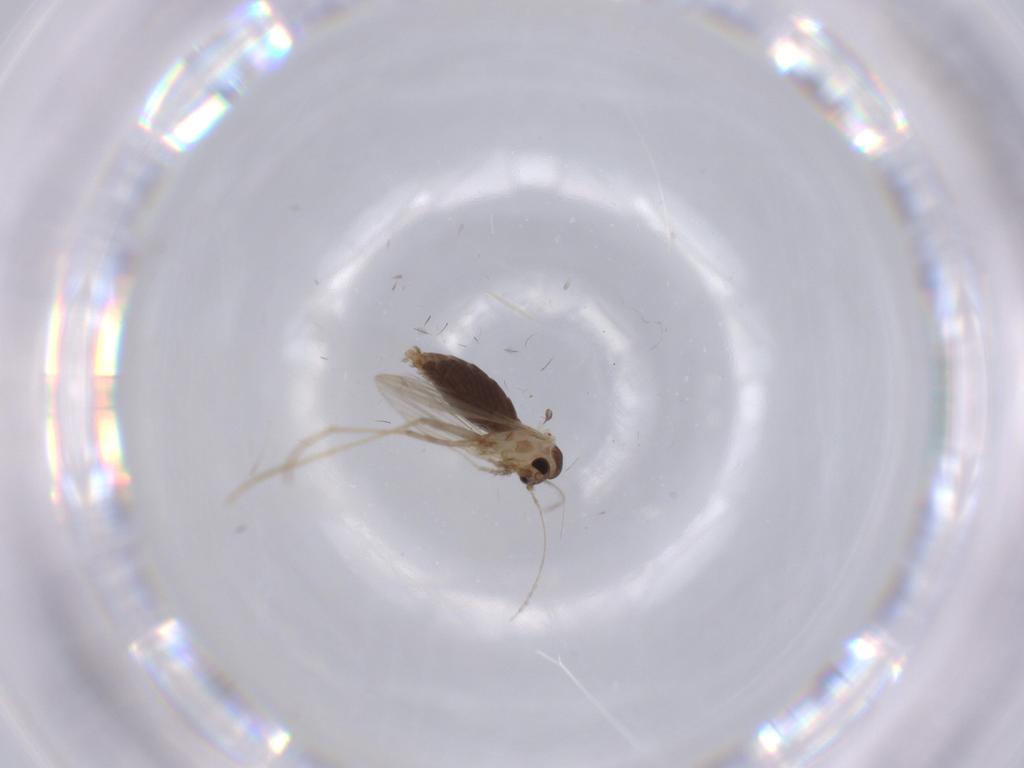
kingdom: Animalia
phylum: Arthropoda
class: Insecta
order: Diptera
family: Psychodidae
